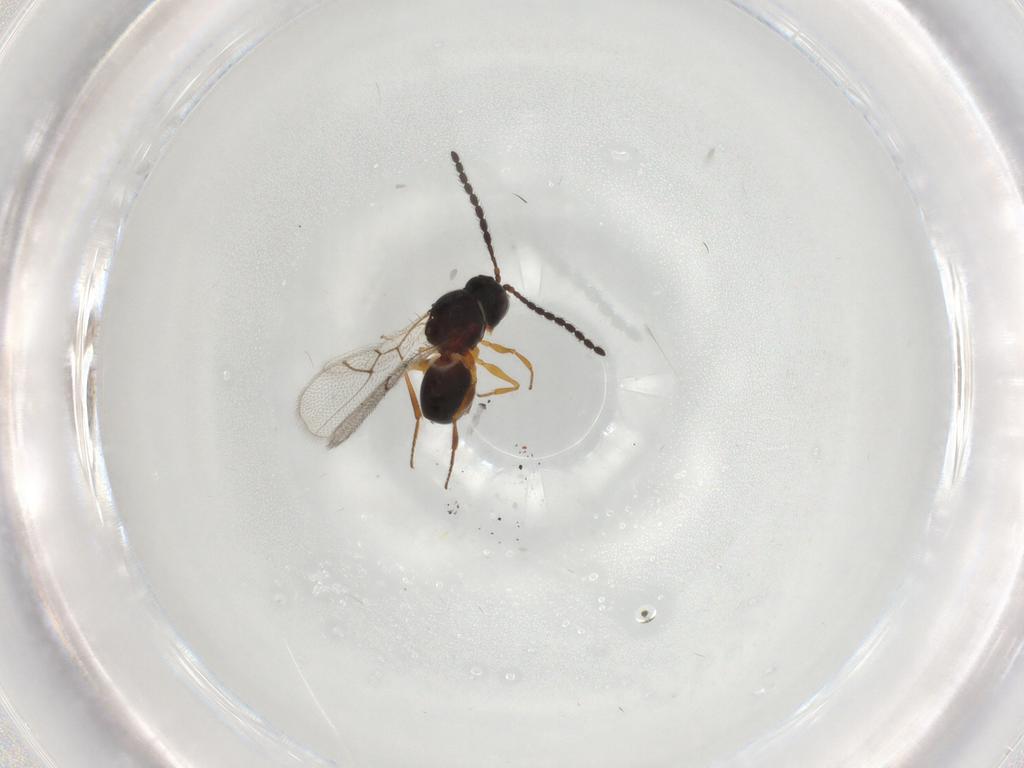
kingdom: Animalia
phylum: Arthropoda
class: Insecta
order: Hymenoptera
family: Figitidae
